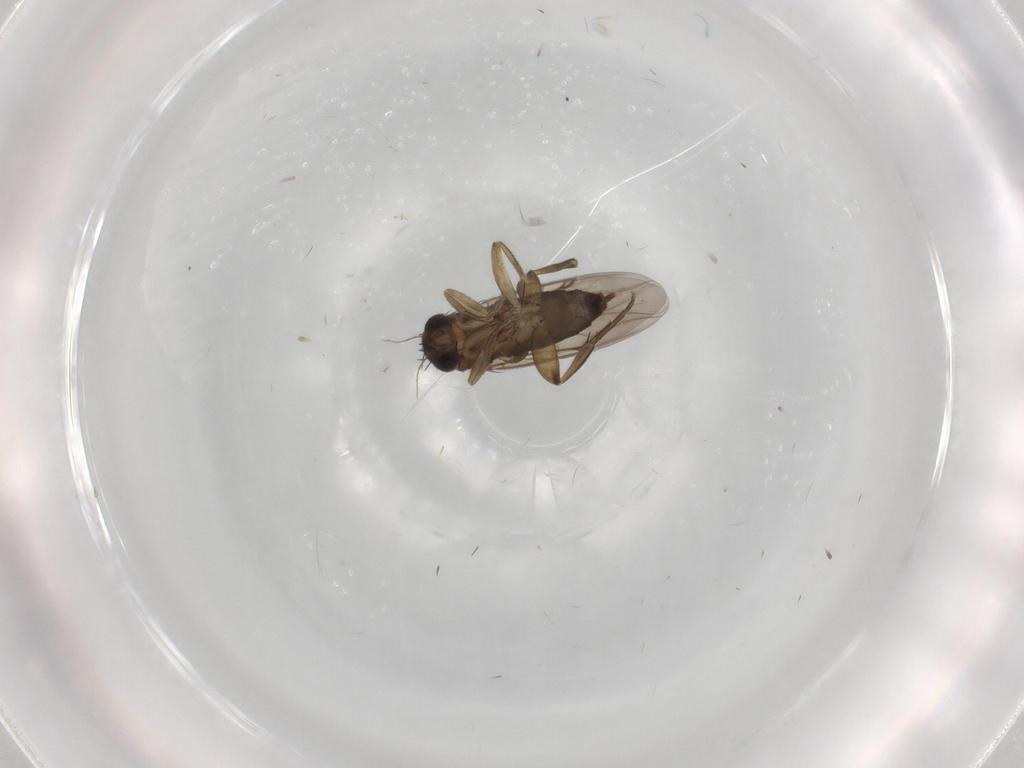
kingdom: Animalia
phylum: Arthropoda
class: Insecta
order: Diptera
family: Phoridae
